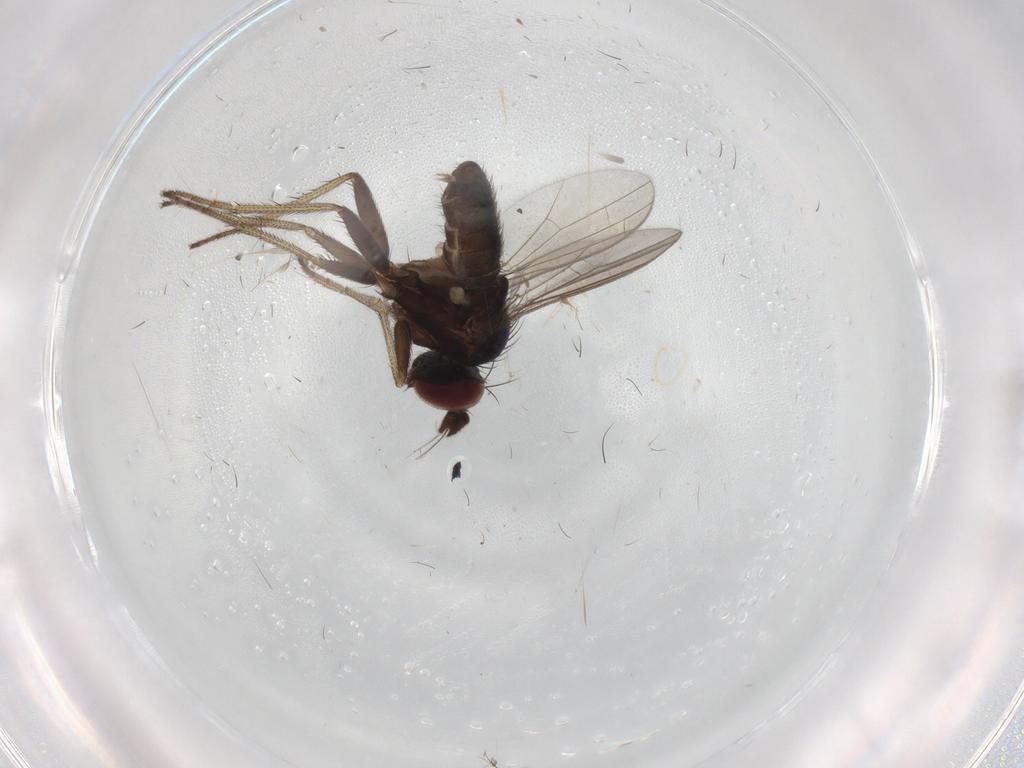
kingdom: Animalia
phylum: Arthropoda
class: Insecta
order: Diptera
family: Dolichopodidae
